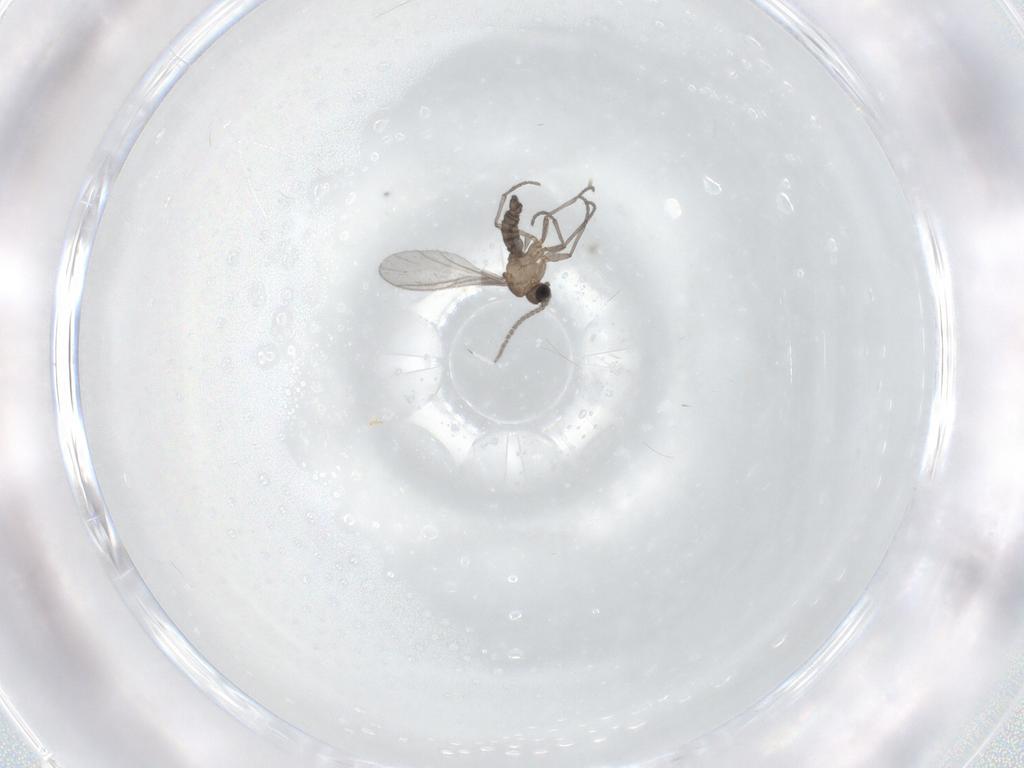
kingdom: Animalia
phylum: Arthropoda
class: Insecta
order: Diptera
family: Sciaridae
